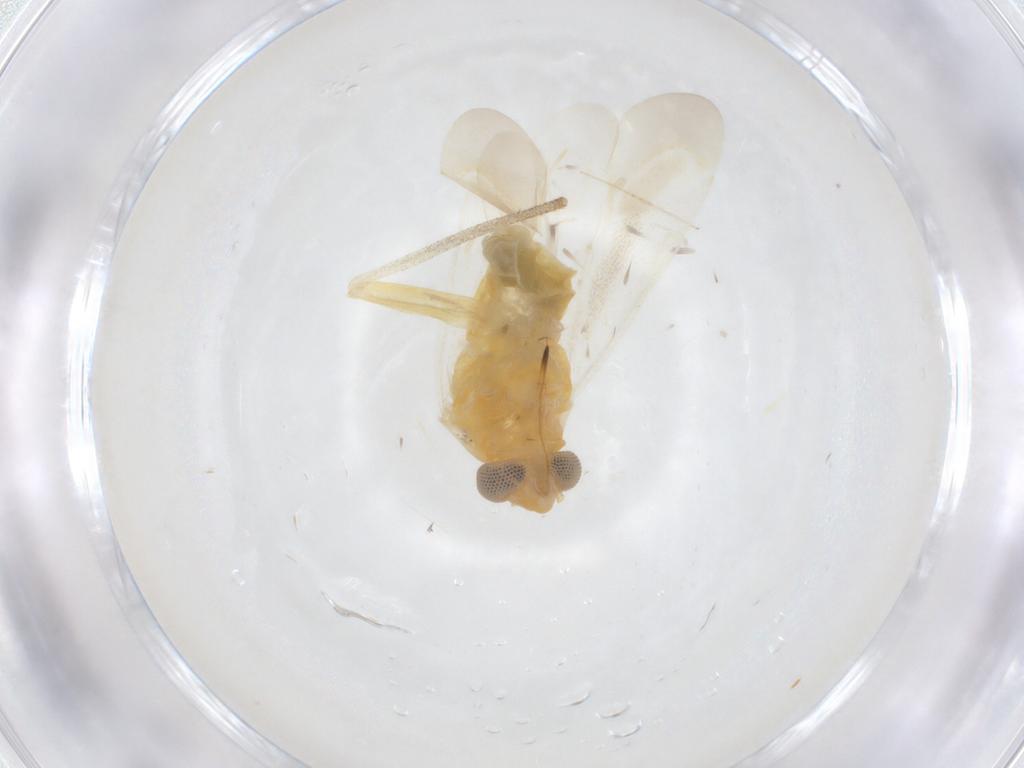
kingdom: Animalia
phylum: Arthropoda
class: Insecta
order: Hemiptera
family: Miridae
